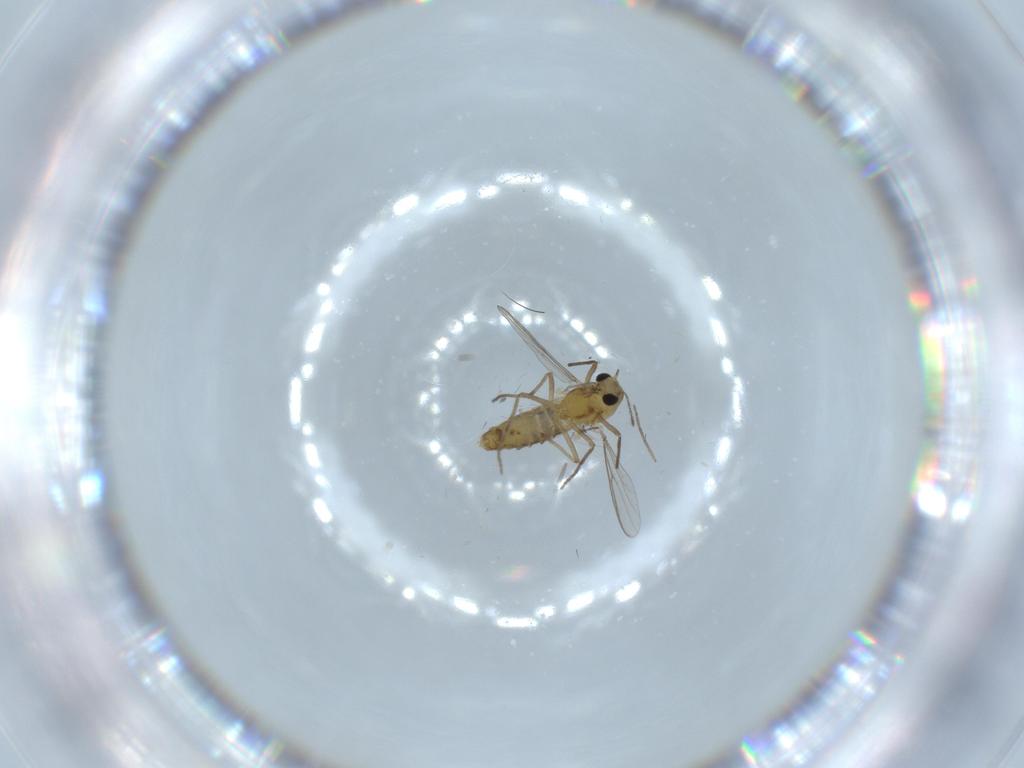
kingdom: Animalia
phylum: Arthropoda
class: Insecta
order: Diptera
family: Chironomidae
